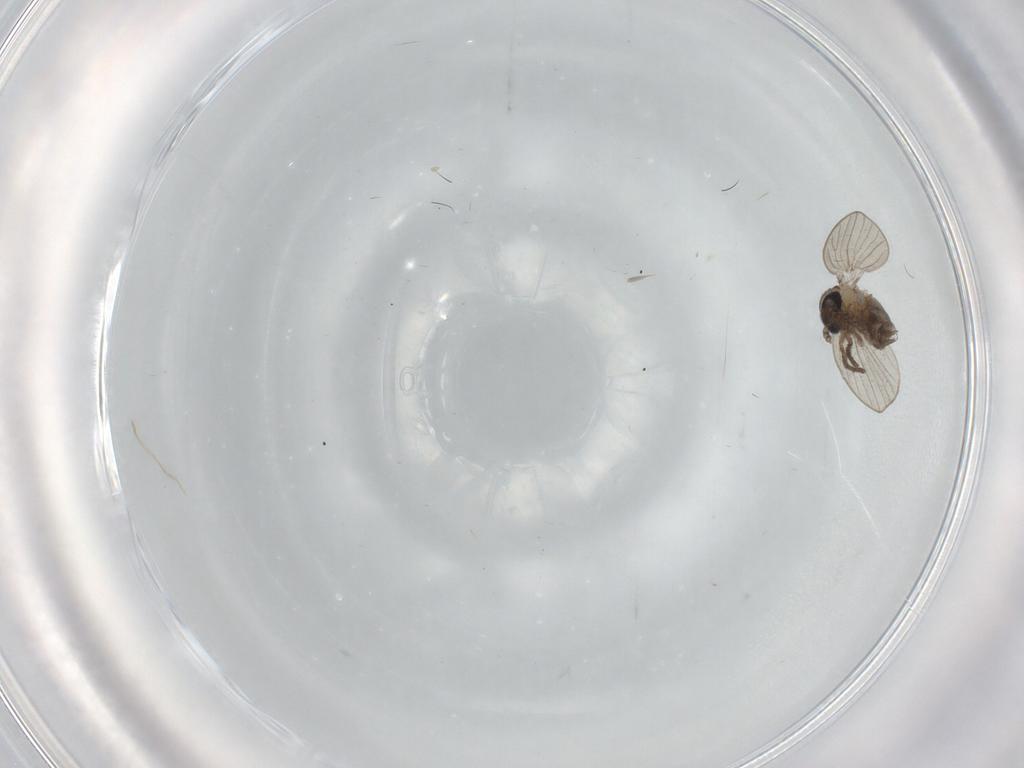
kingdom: Animalia
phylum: Arthropoda
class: Insecta
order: Diptera
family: Psychodidae
